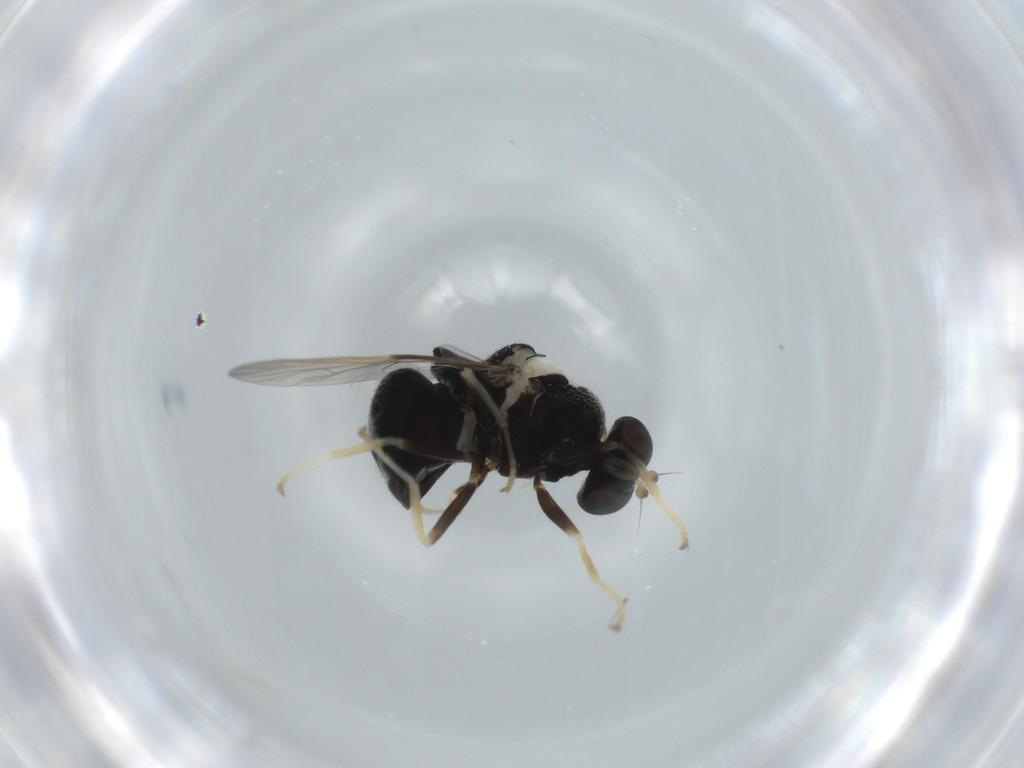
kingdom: Animalia
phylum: Arthropoda
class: Insecta
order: Diptera
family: Stratiomyidae
